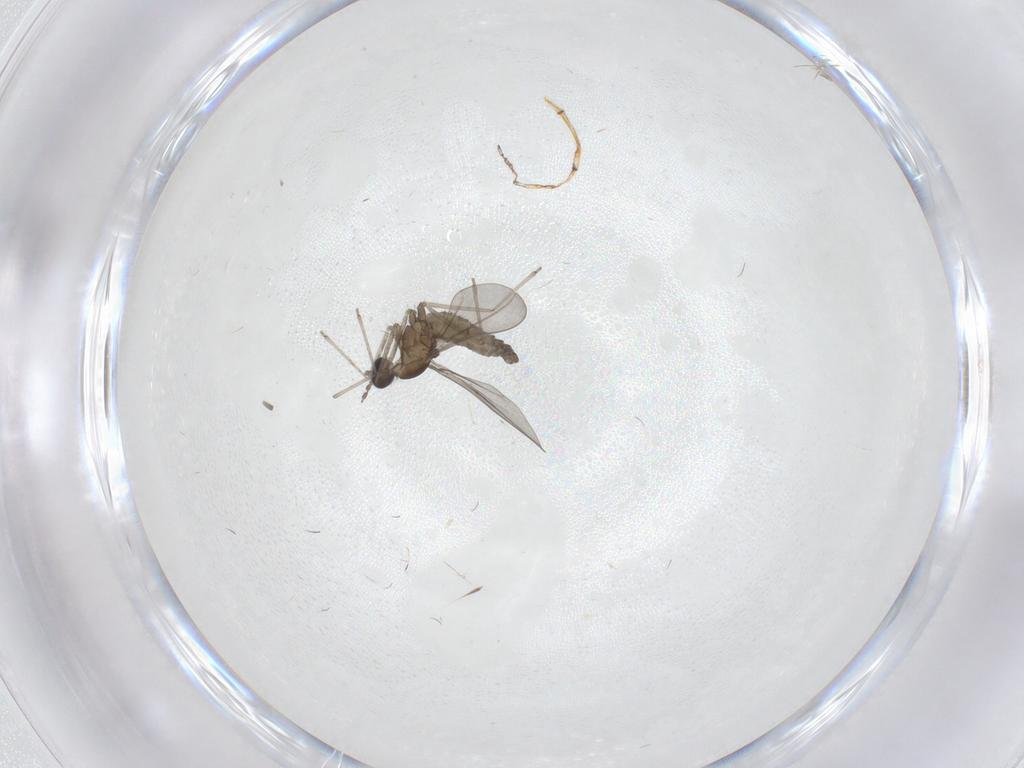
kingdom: Animalia
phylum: Arthropoda
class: Insecta
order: Diptera
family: Cecidomyiidae
